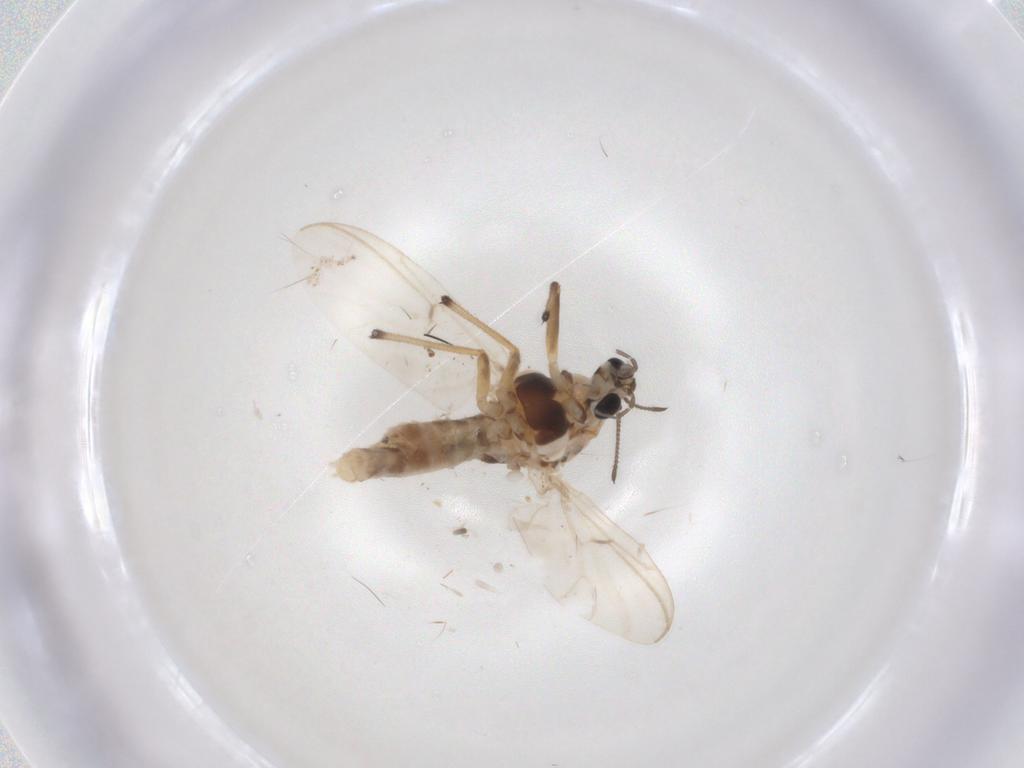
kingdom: Animalia
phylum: Arthropoda
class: Insecta
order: Diptera
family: Chironomidae
